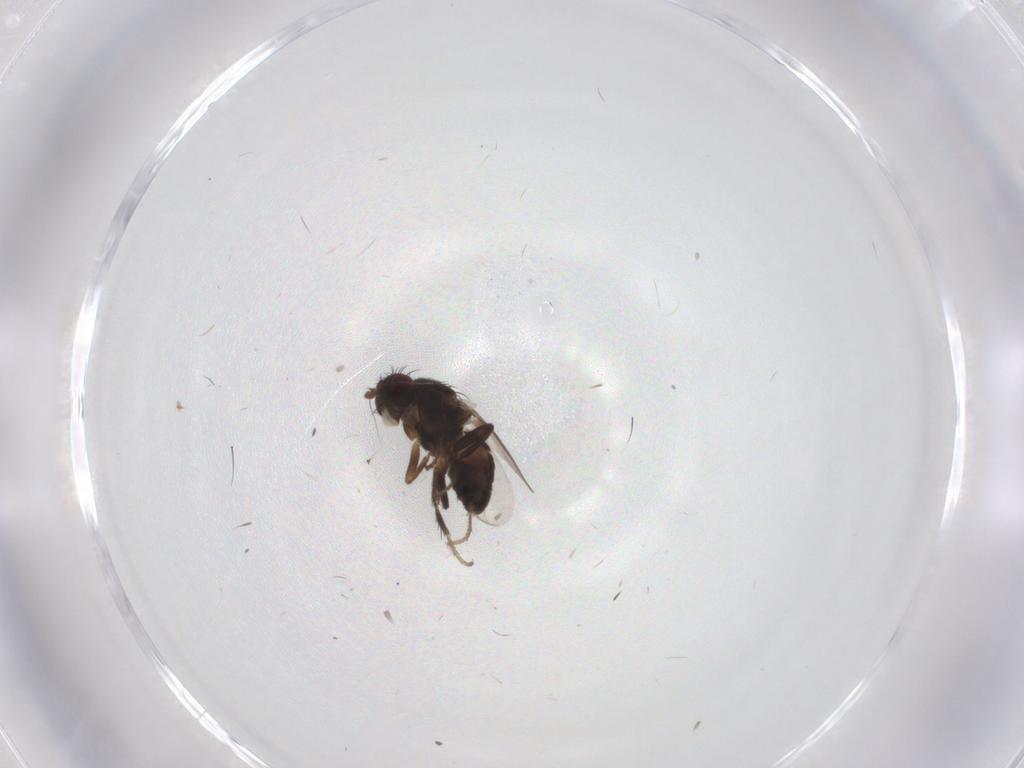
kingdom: Animalia
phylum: Arthropoda
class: Insecta
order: Diptera
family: Sphaeroceridae
